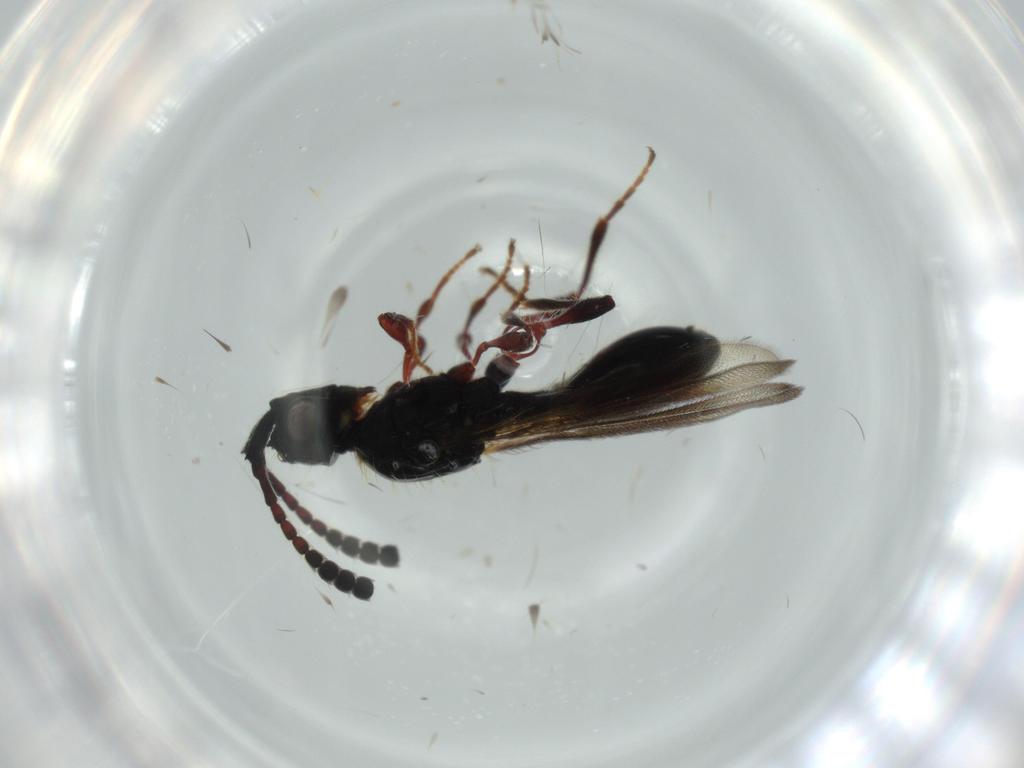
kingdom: Animalia
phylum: Arthropoda
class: Insecta
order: Hymenoptera
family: Diapriidae
